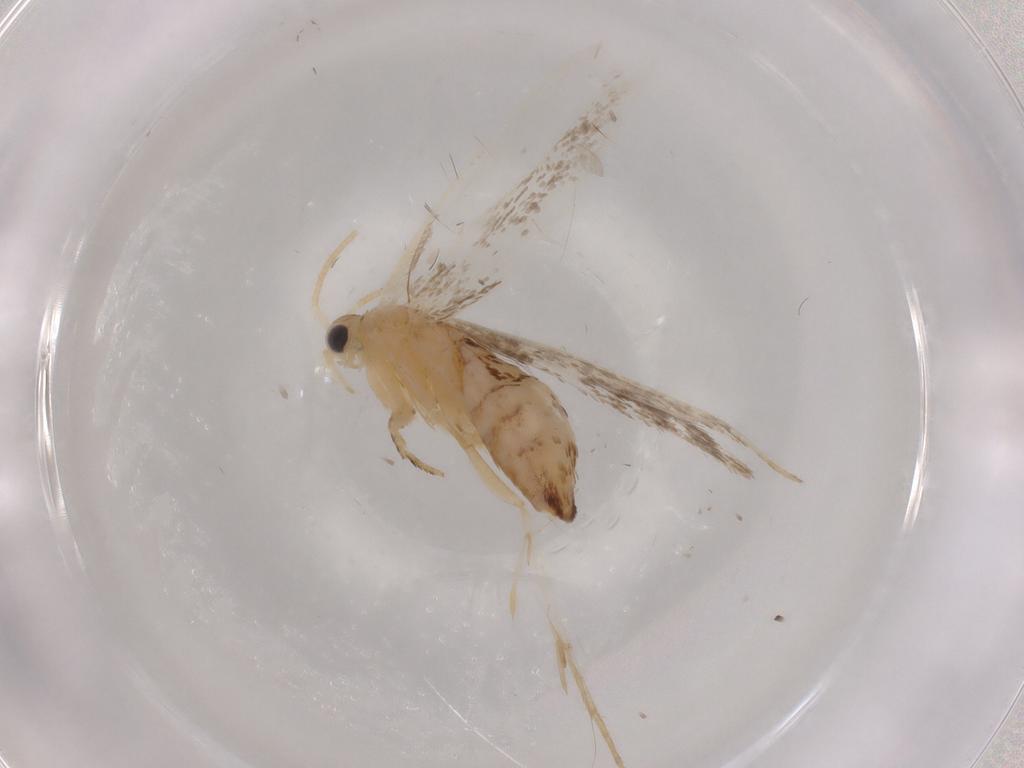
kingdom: Animalia
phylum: Arthropoda
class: Insecta
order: Lepidoptera
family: Dryadaulidae
